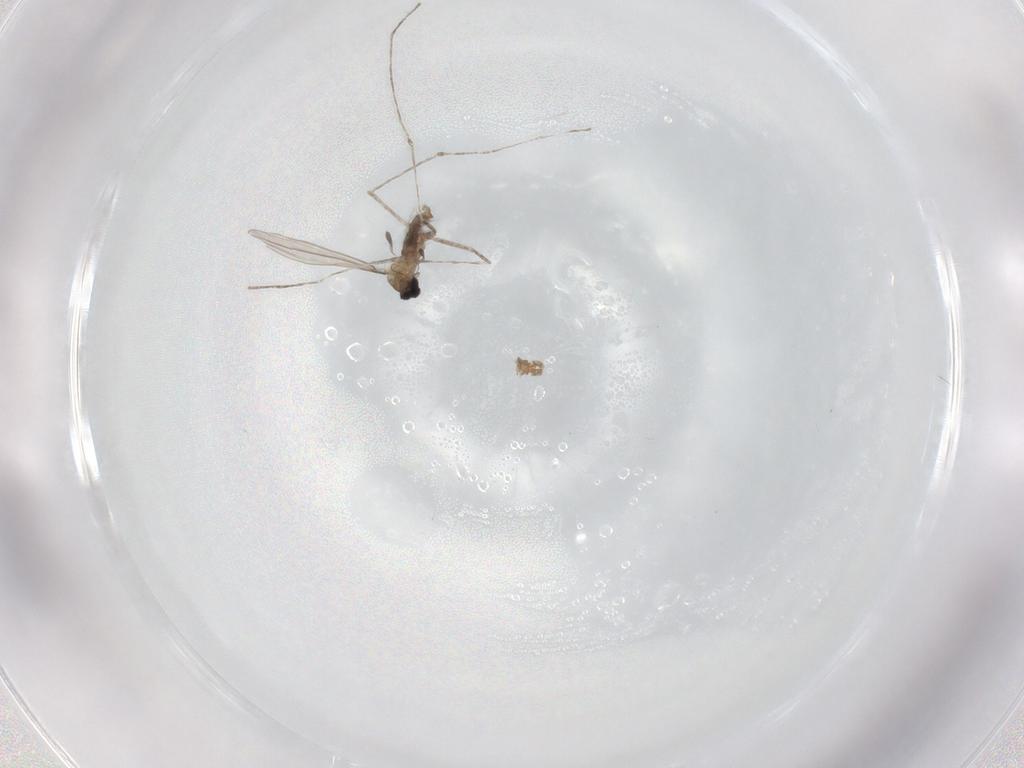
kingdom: Animalia
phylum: Arthropoda
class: Insecta
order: Diptera
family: Cecidomyiidae
